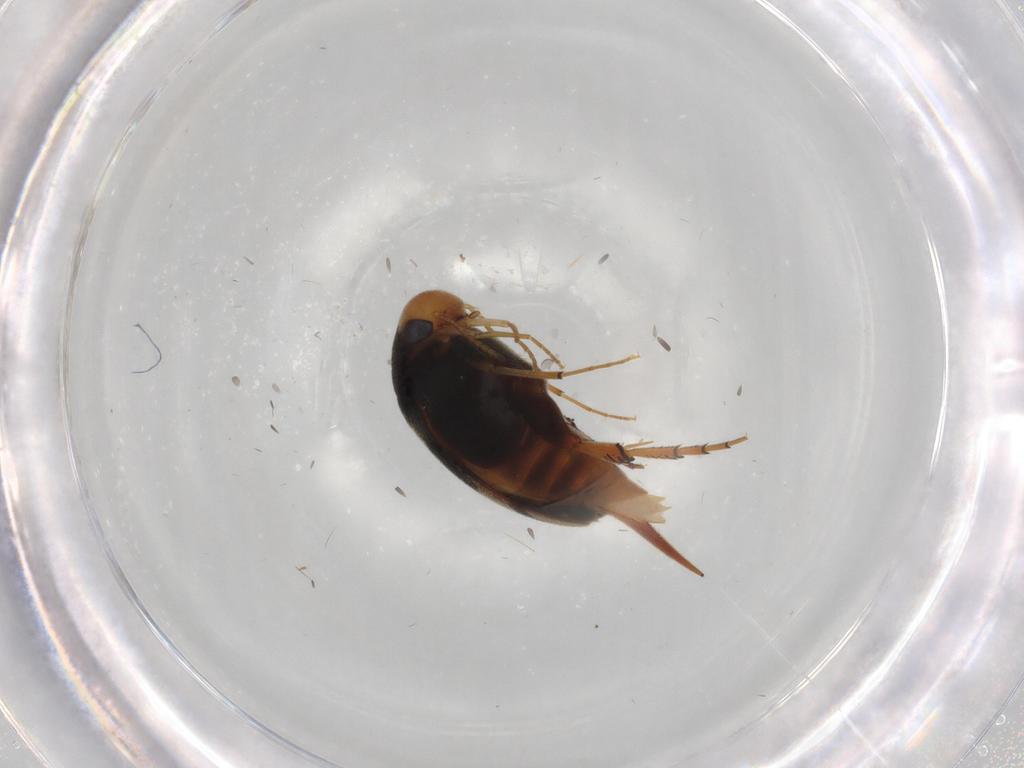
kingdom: Animalia
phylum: Arthropoda
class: Insecta
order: Coleoptera
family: Mordellidae
